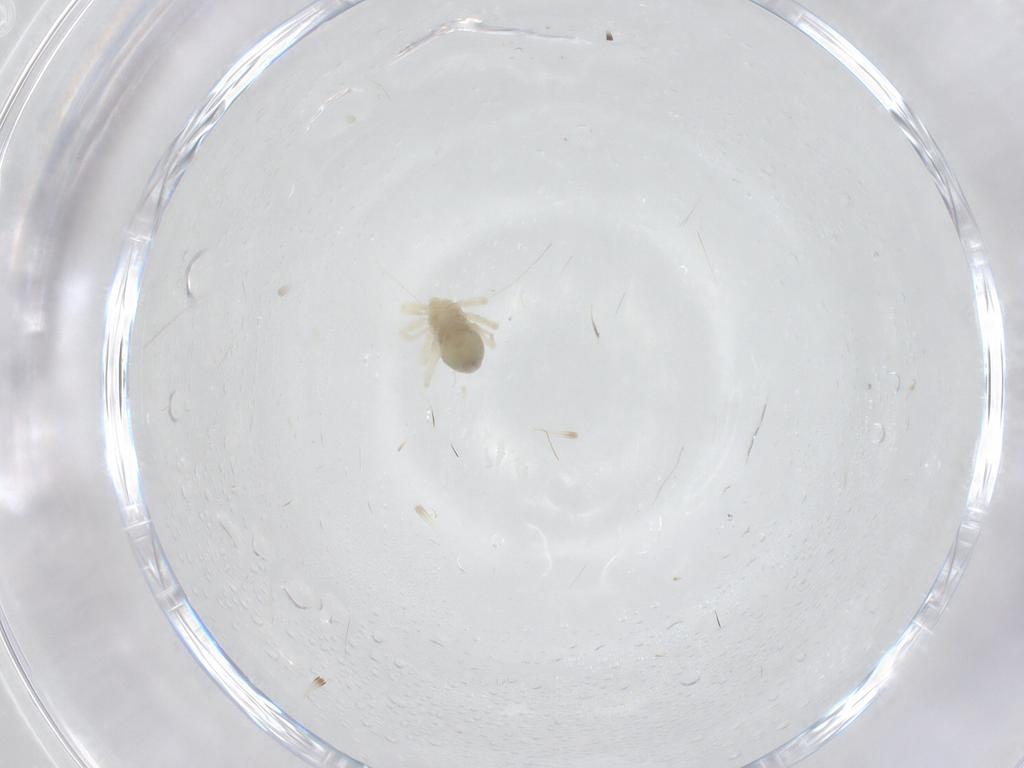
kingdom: Animalia
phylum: Arthropoda
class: Arachnida
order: Trombidiformes
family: Anystidae
